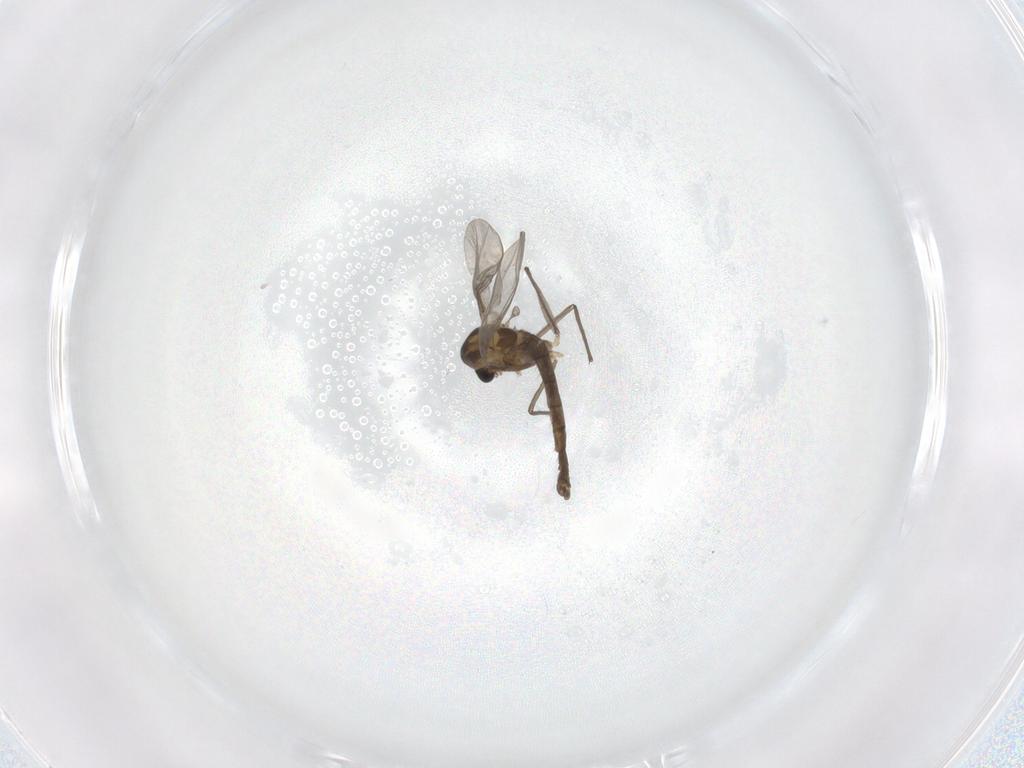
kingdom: Animalia
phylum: Arthropoda
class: Insecta
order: Diptera
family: Chironomidae
